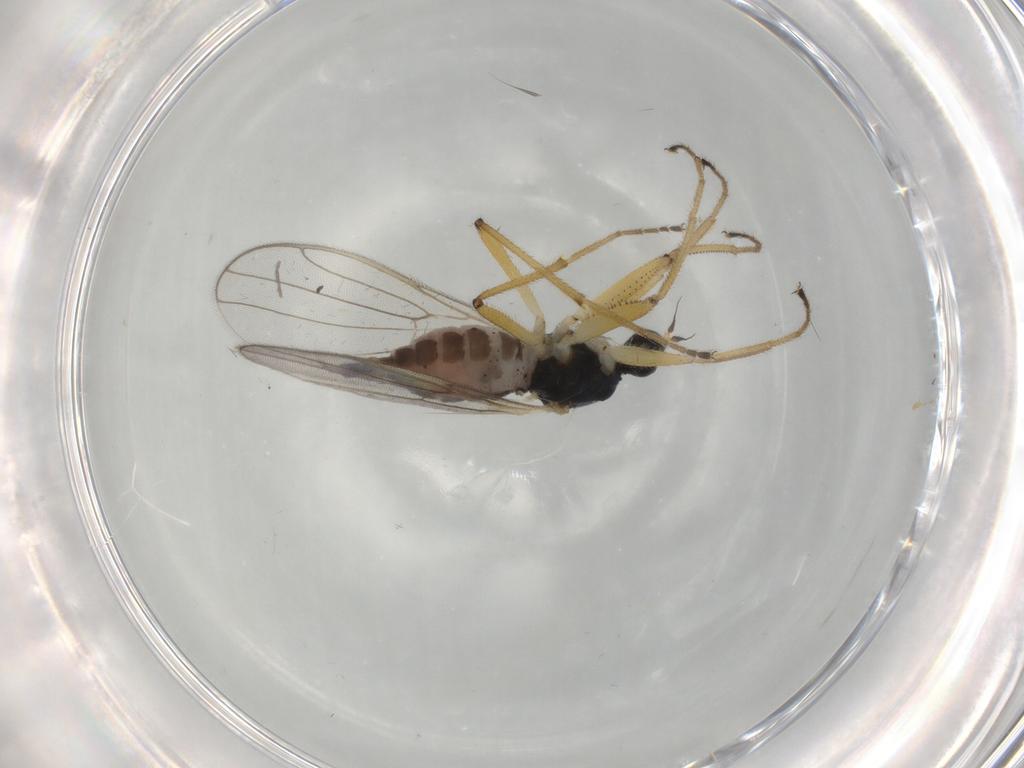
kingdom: Animalia
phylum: Arthropoda
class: Insecta
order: Diptera
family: Hybotidae
